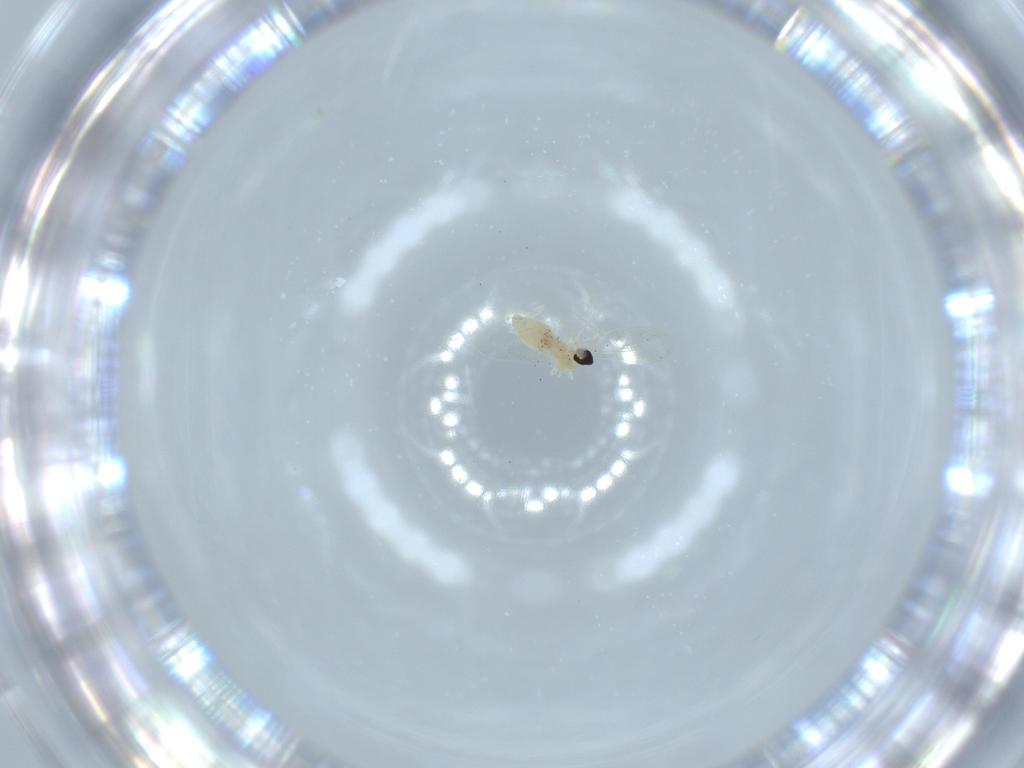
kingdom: Animalia
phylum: Arthropoda
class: Insecta
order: Diptera
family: Cecidomyiidae
